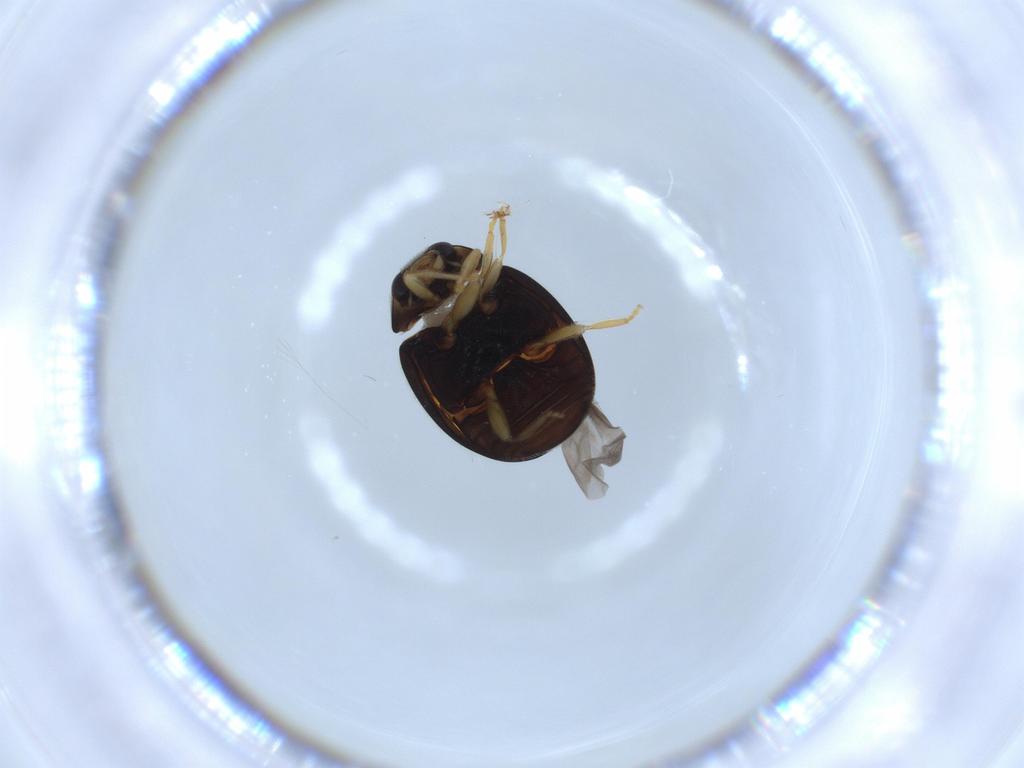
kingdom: Animalia
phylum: Arthropoda
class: Insecta
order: Coleoptera
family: Coccinellidae
